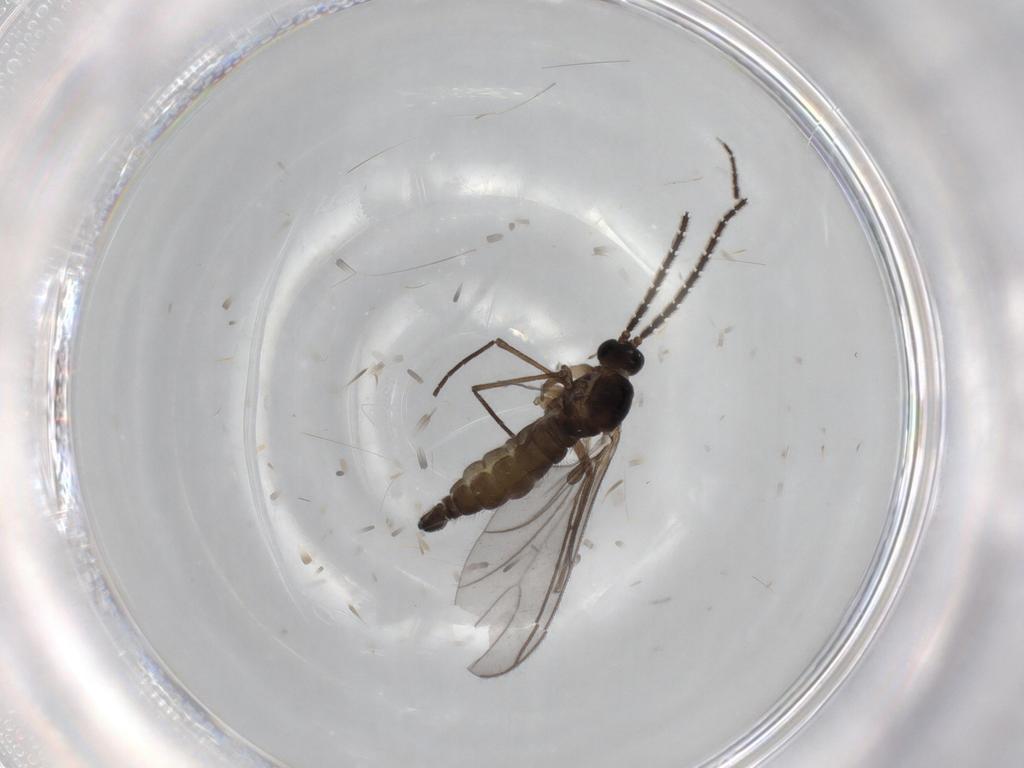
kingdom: Animalia
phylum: Arthropoda
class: Insecta
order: Diptera
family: Sciaridae
